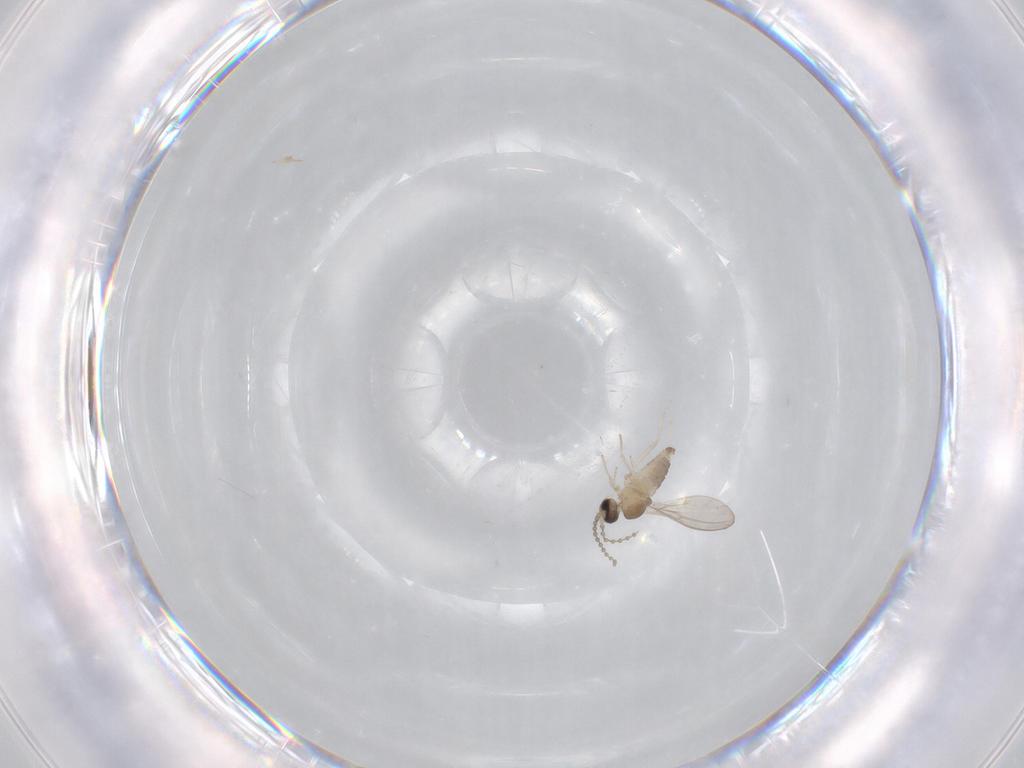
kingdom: Animalia
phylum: Arthropoda
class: Insecta
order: Diptera
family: Cecidomyiidae
